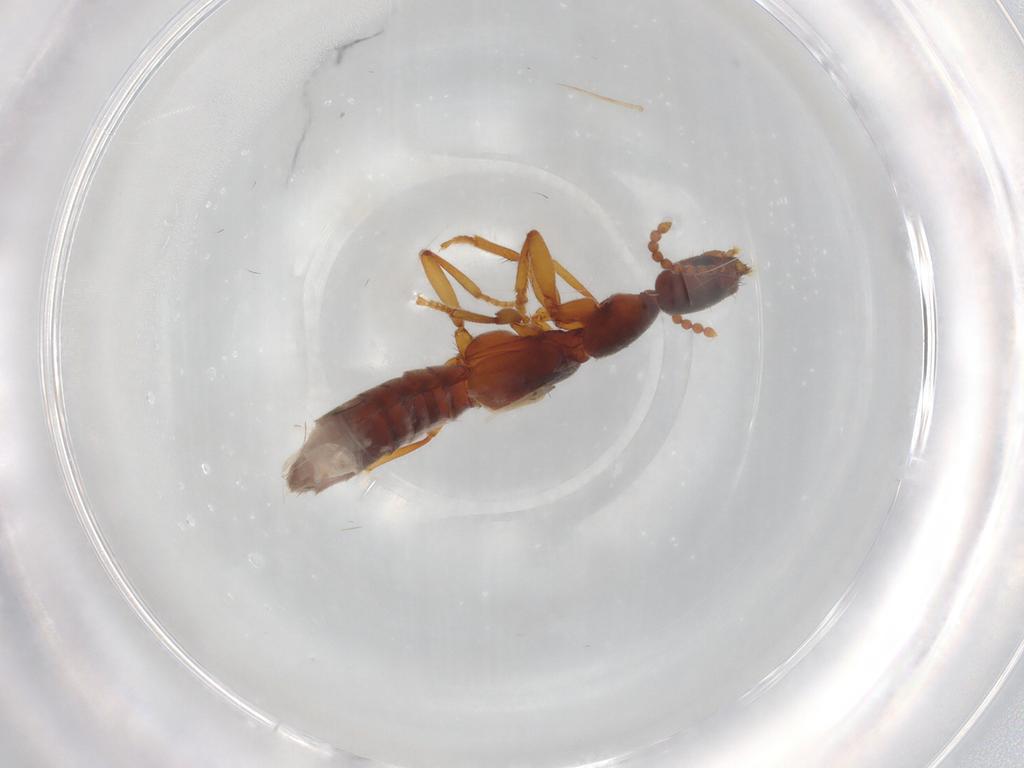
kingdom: Animalia
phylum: Arthropoda
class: Insecta
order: Coleoptera
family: Staphylinidae
